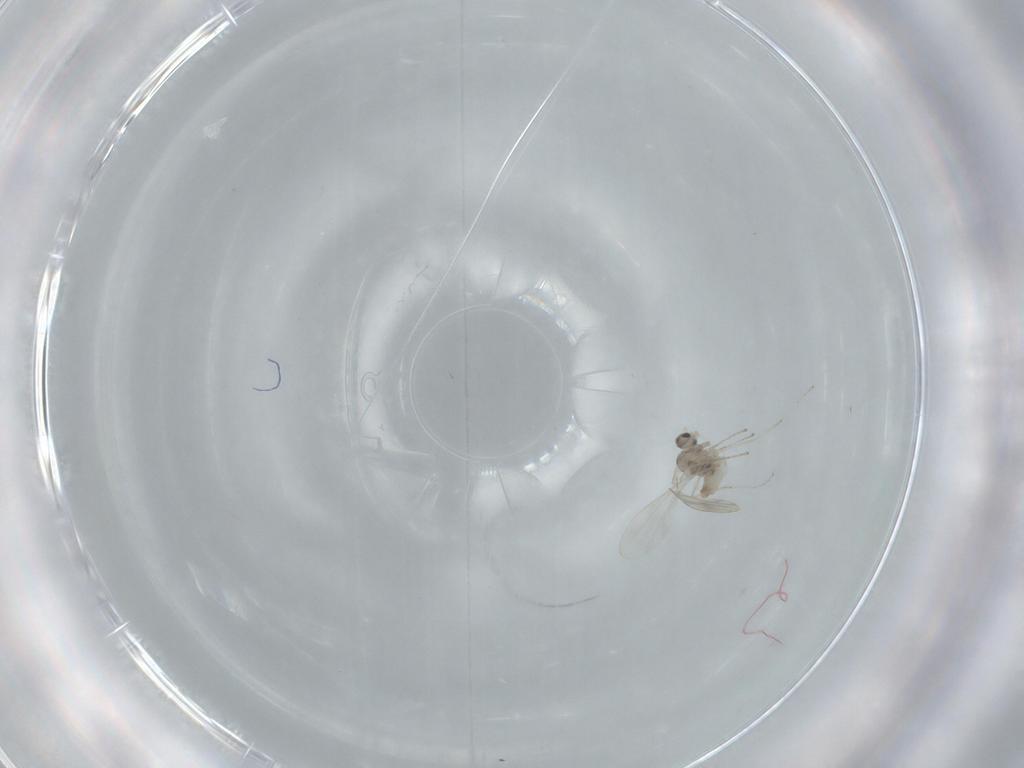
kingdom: Animalia
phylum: Arthropoda
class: Insecta
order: Diptera
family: Cecidomyiidae
